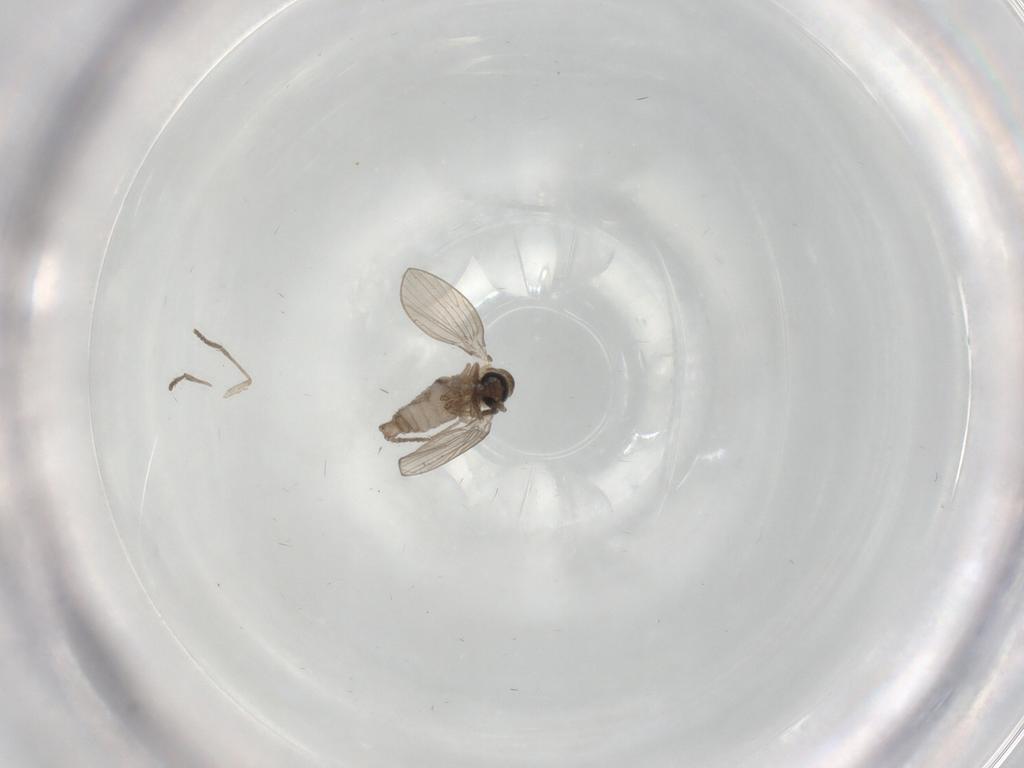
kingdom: Animalia
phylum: Arthropoda
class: Insecta
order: Diptera
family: Psychodidae
